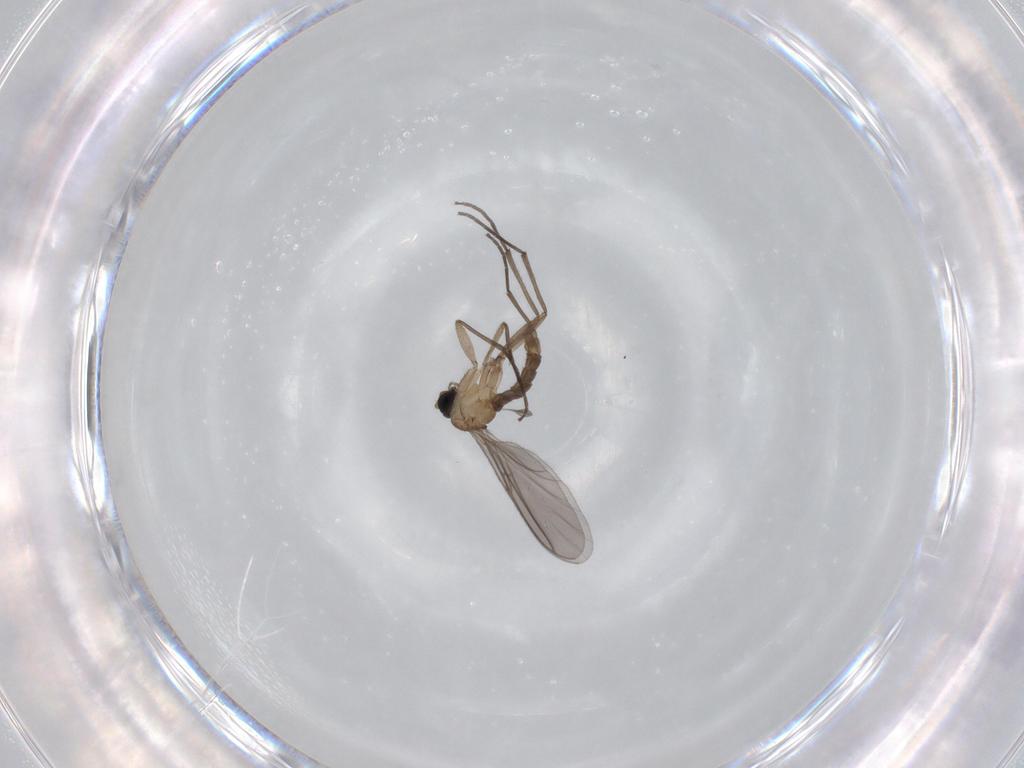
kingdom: Animalia
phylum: Arthropoda
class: Insecta
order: Diptera
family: Sciaridae
